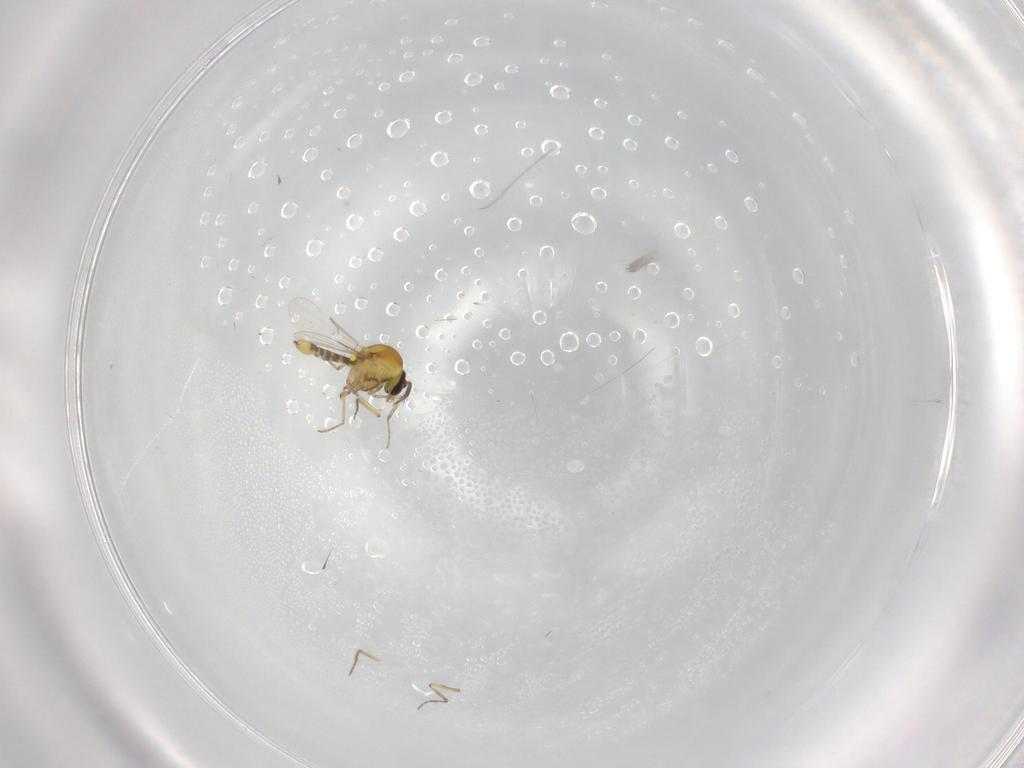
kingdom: Animalia
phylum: Arthropoda
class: Insecta
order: Diptera
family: Ceratopogonidae
